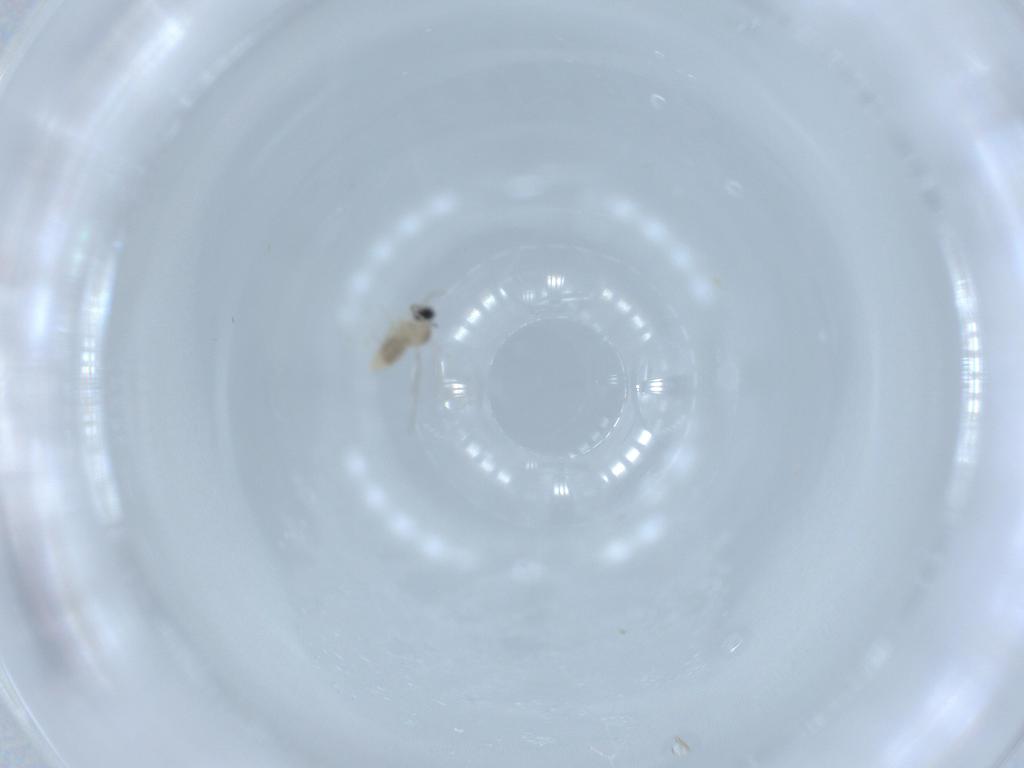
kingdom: Animalia
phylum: Arthropoda
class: Insecta
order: Diptera
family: Cecidomyiidae
